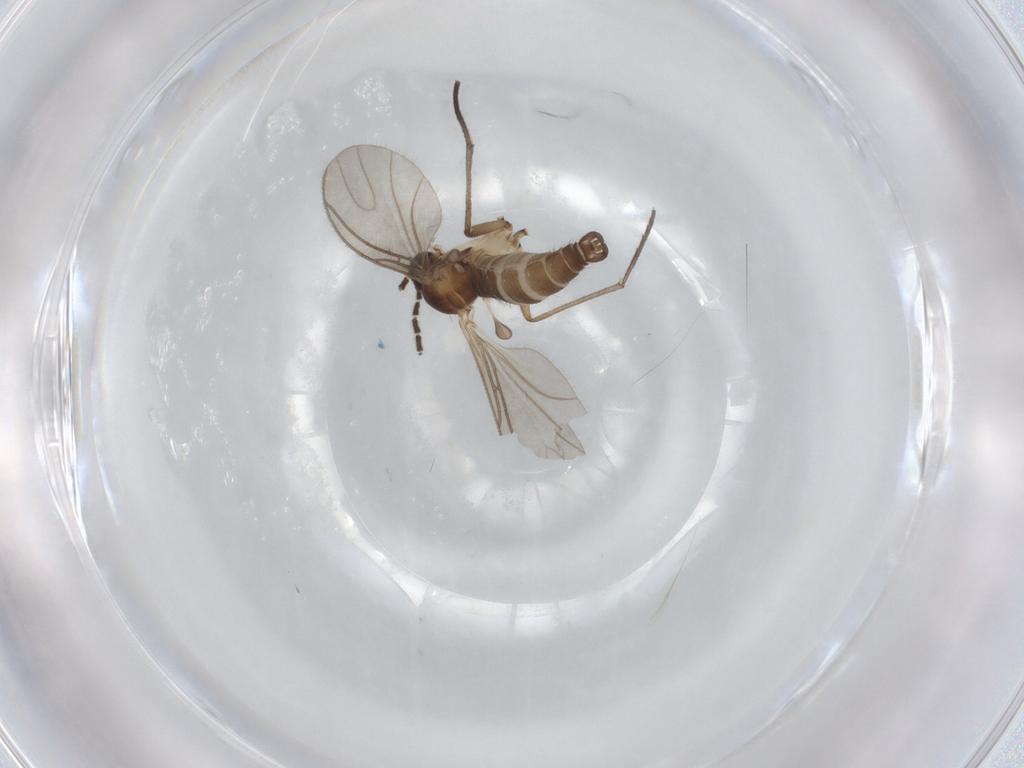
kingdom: Animalia
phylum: Arthropoda
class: Insecta
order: Diptera
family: Sciaridae
